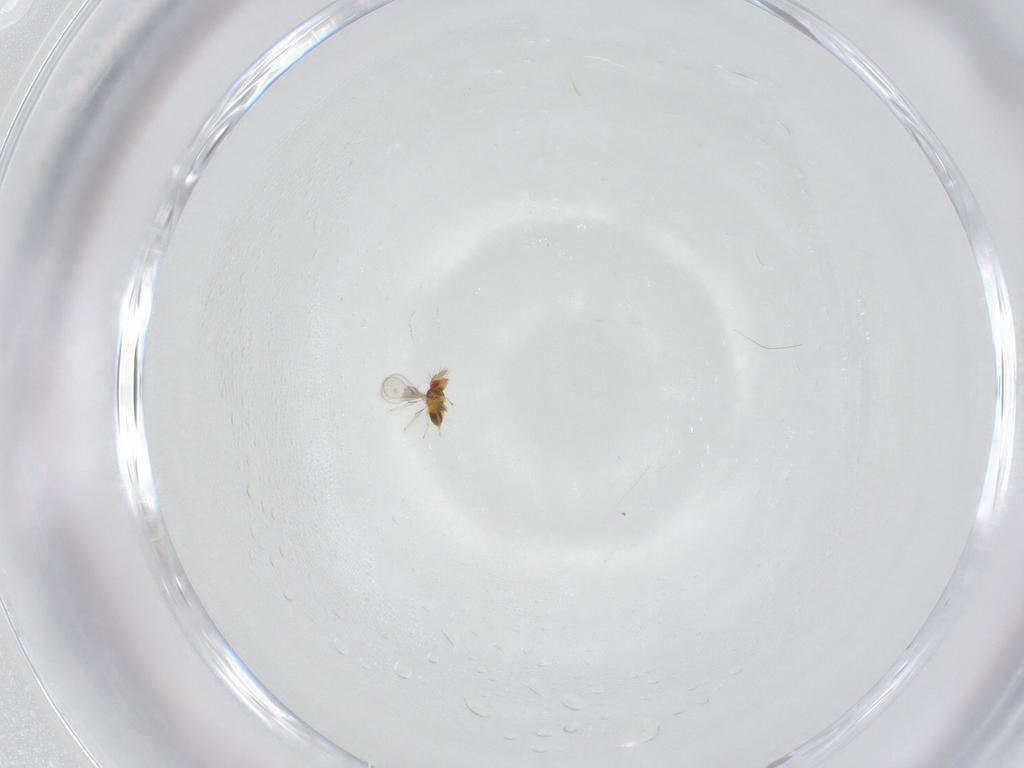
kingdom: Animalia
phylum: Arthropoda
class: Insecta
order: Hymenoptera
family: Trichogrammatidae
